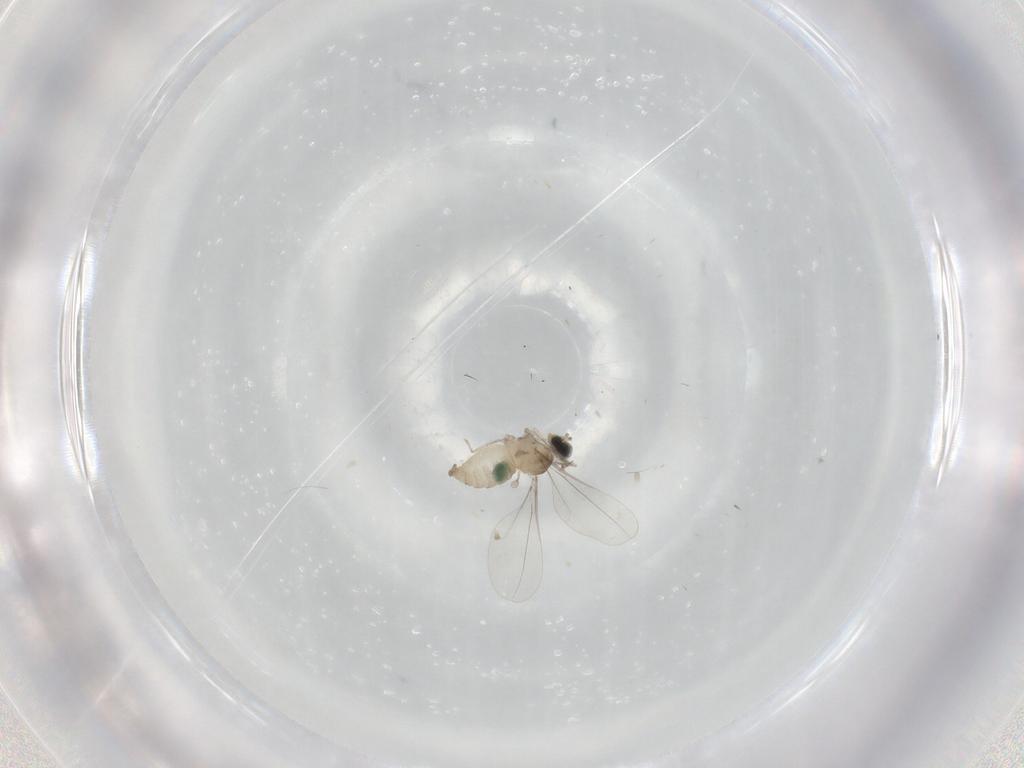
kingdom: Animalia
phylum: Arthropoda
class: Insecta
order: Diptera
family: Cecidomyiidae
